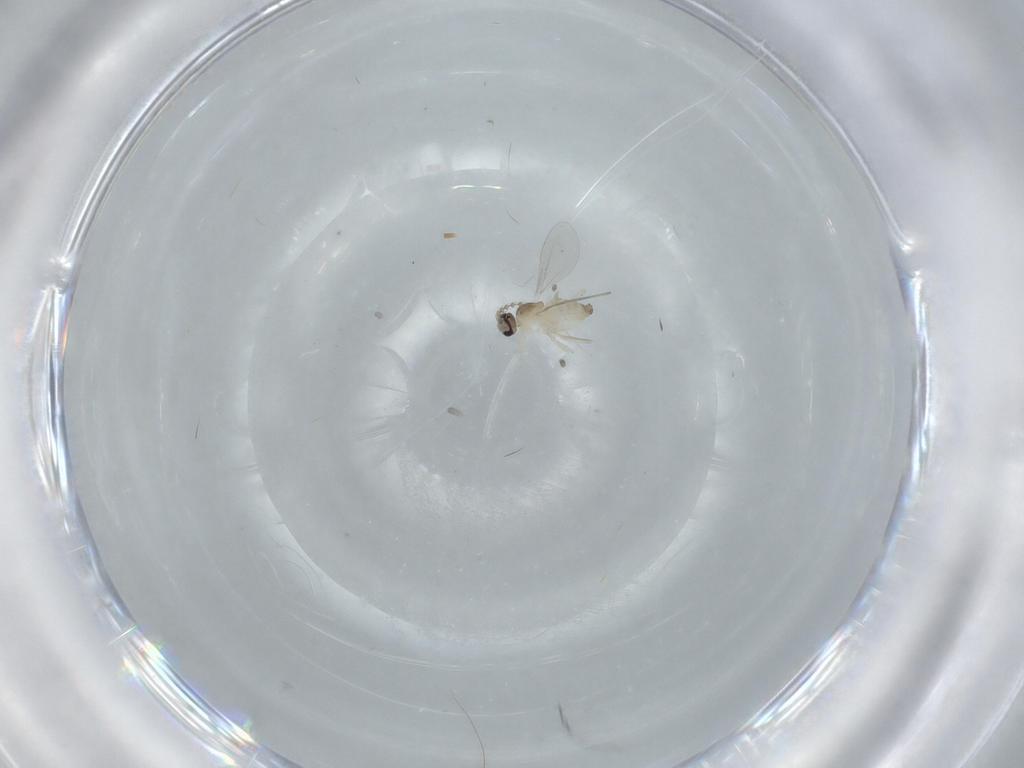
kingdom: Animalia
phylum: Arthropoda
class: Insecta
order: Diptera
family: Cecidomyiidae
